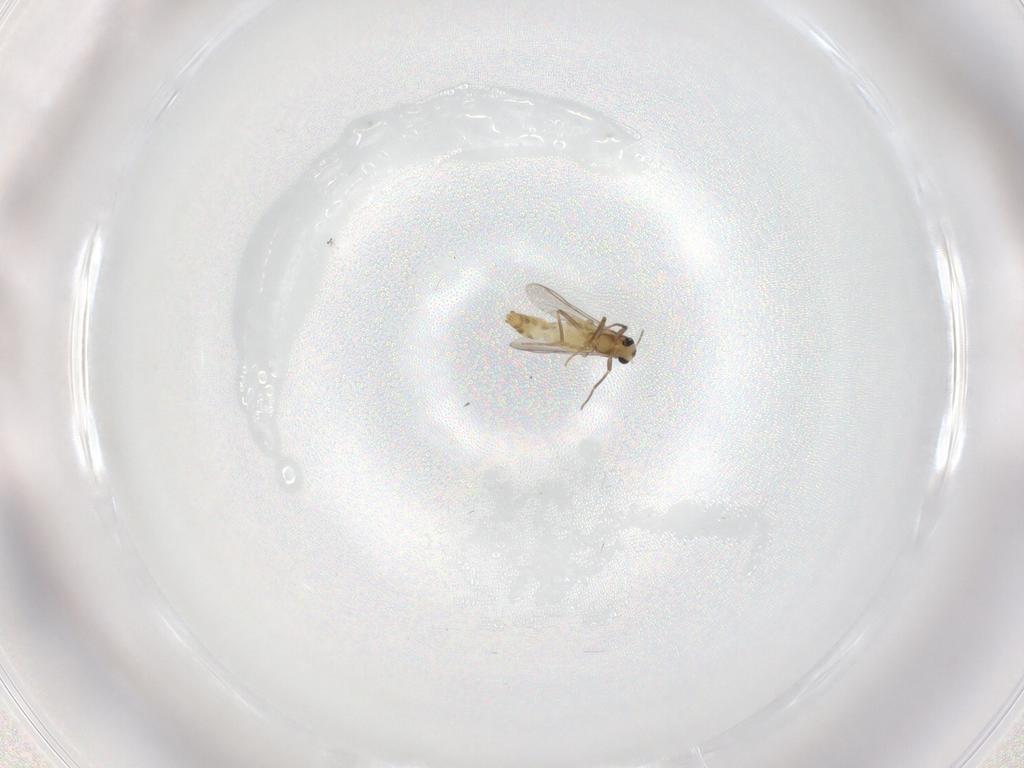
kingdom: Animalia
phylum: Arthropoda
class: Insecta
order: Diptera
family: Chironomidae
